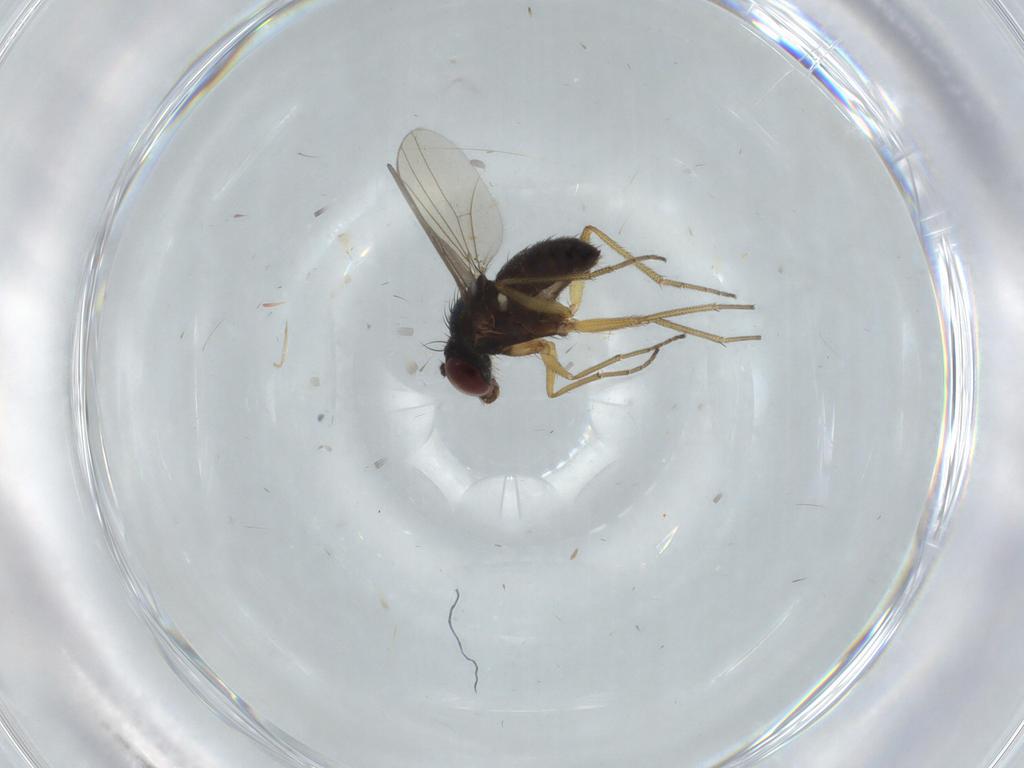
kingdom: Animalia
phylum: Arthropoda
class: Insecta
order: Diptera
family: Dolichopodidae
